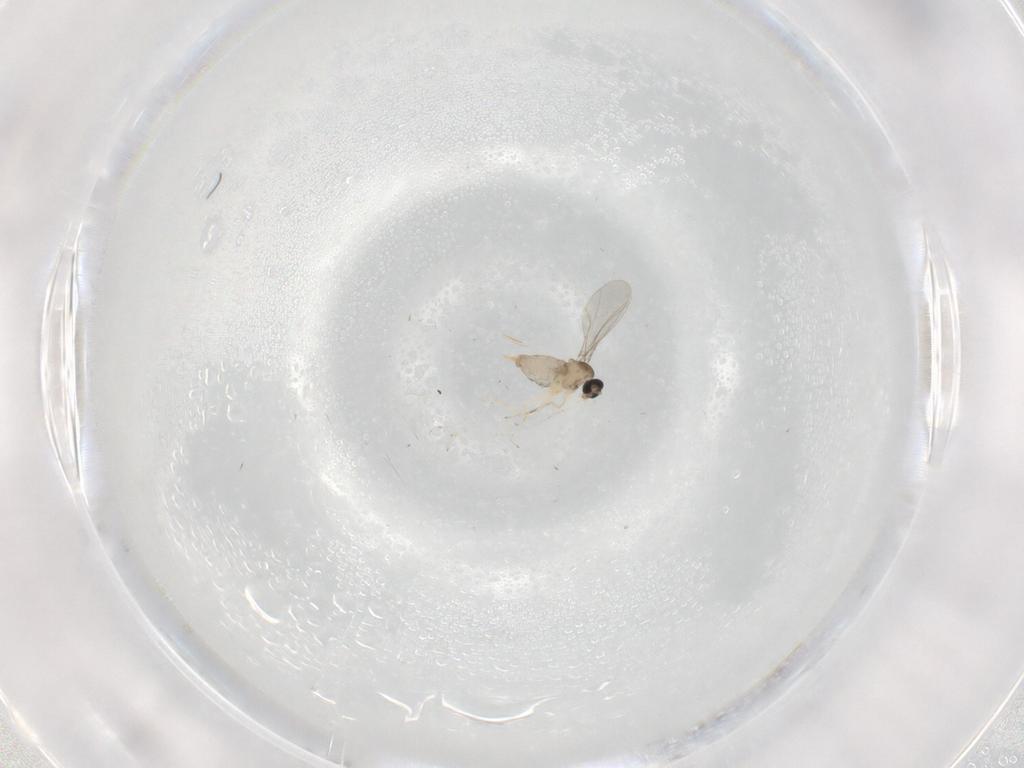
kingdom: Animalia
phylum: Arthropoda
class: Insecta
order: Diptera
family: Cecidomyiidae
